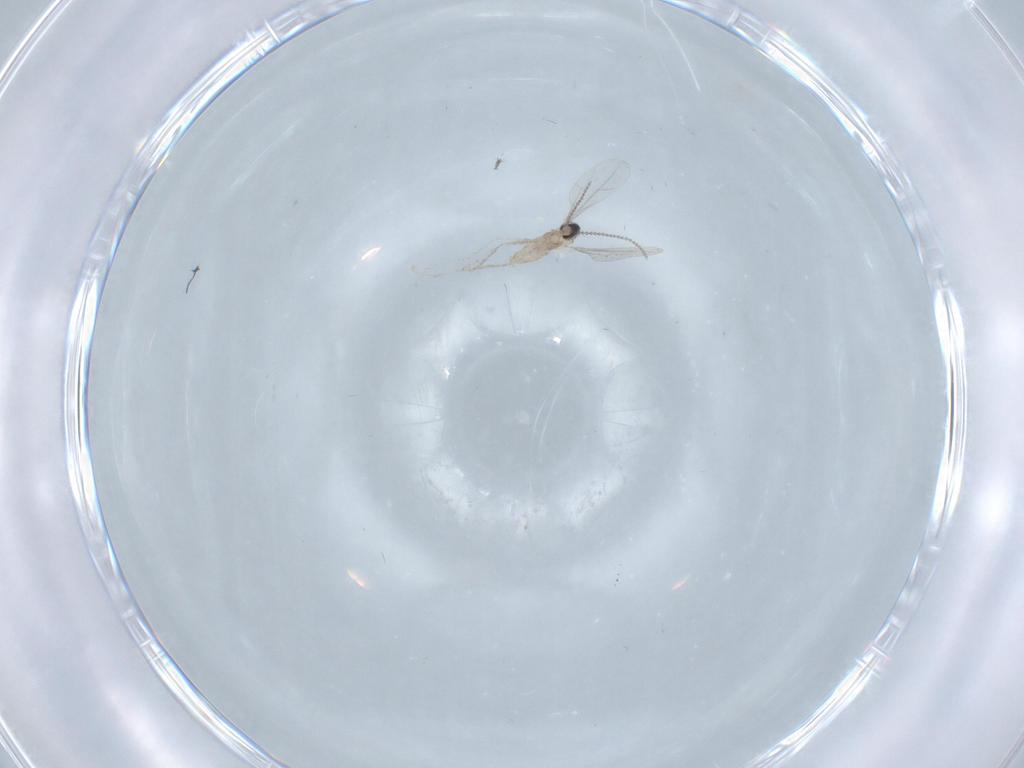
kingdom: Animalia
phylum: Arthropoda
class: Insecta
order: Diptera
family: Cecidomyiidae
